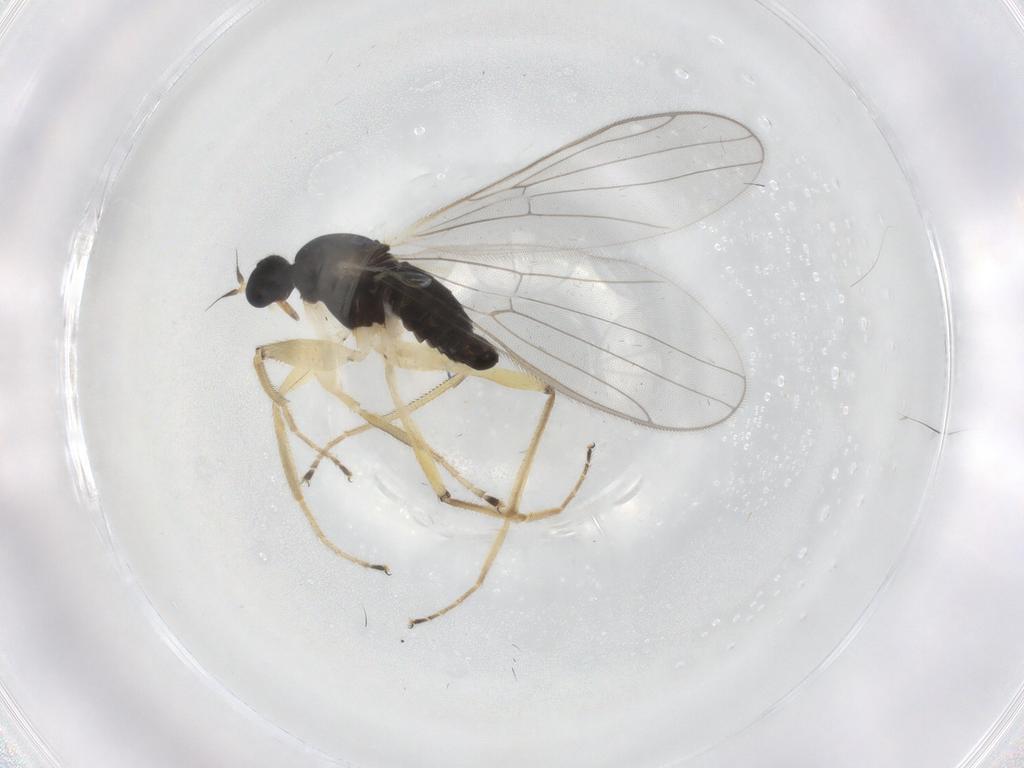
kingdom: Animalia
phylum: Arthropoda
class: Insecta
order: Diptera
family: Hybotidae
